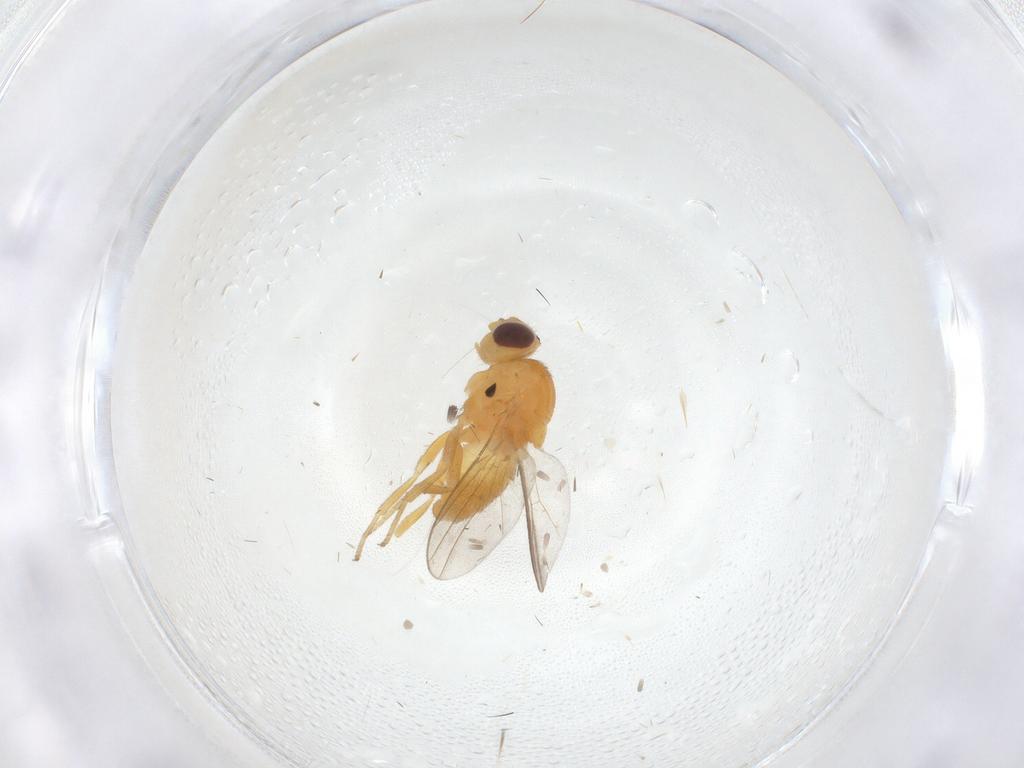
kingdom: Animalia
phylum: Arthropoda
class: Insecta
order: Diptera
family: Chloropidae
